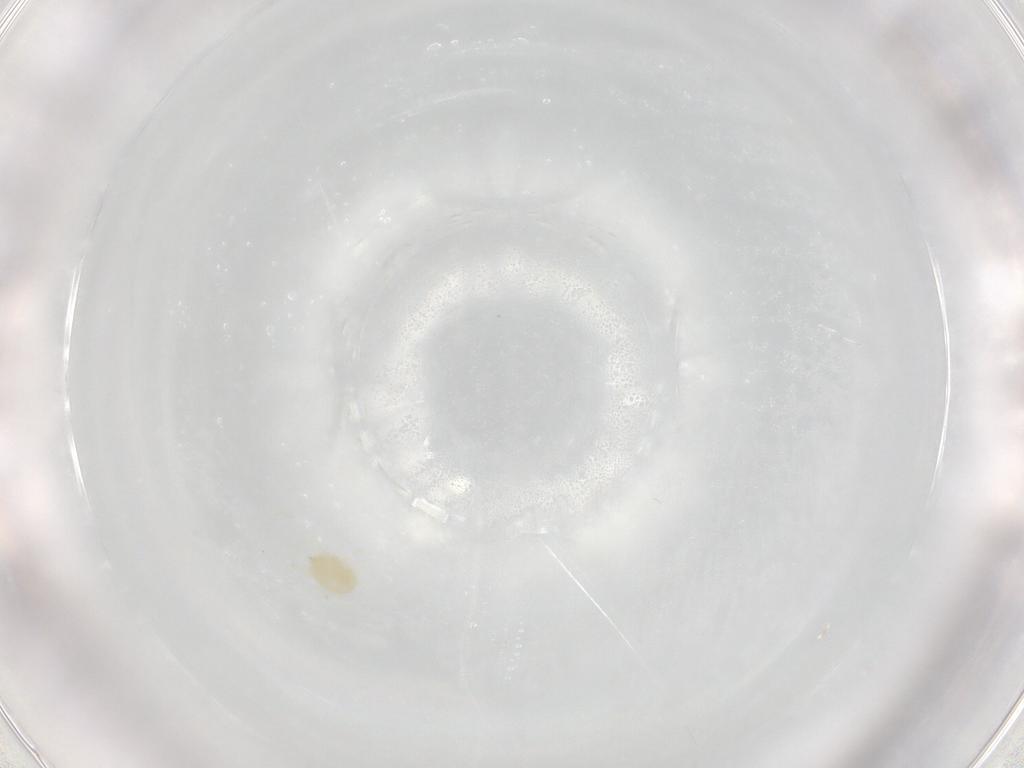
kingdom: Animalia
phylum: Arthropoda
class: Arachnida
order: Trombidiformes
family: Tetranychidae
